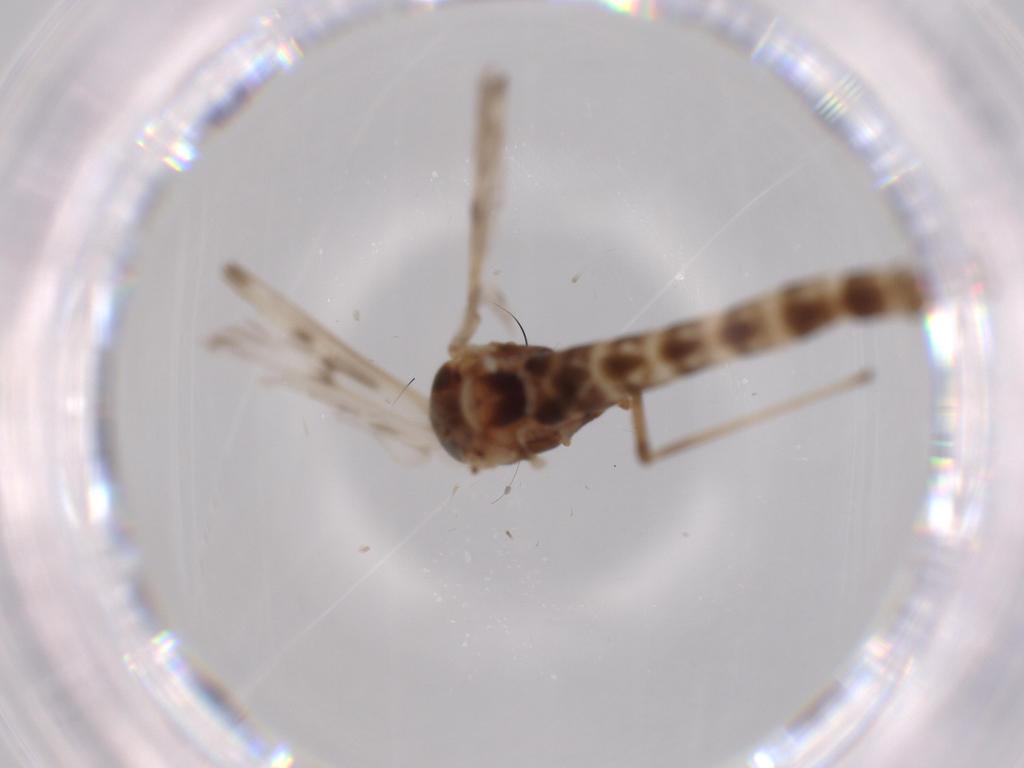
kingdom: Animalia
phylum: Arthropoda
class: Insecta
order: Diptera
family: Chironomidae
